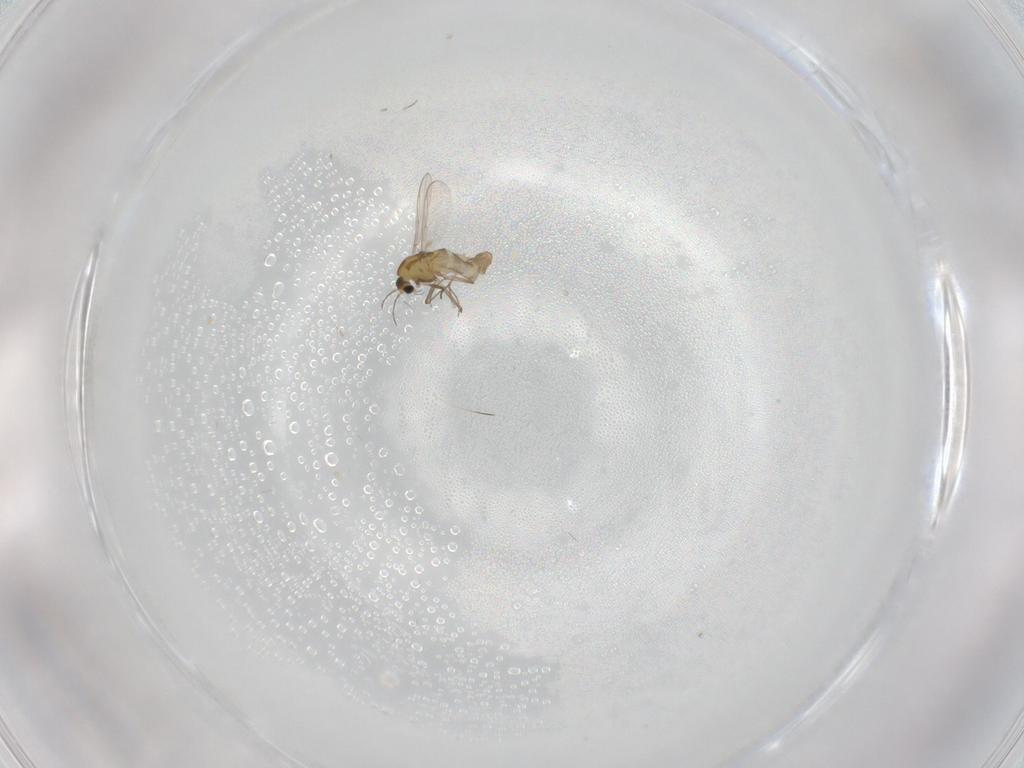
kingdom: Animalia
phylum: Arthropoda
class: Insecta
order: Diptera
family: Chironomidae
